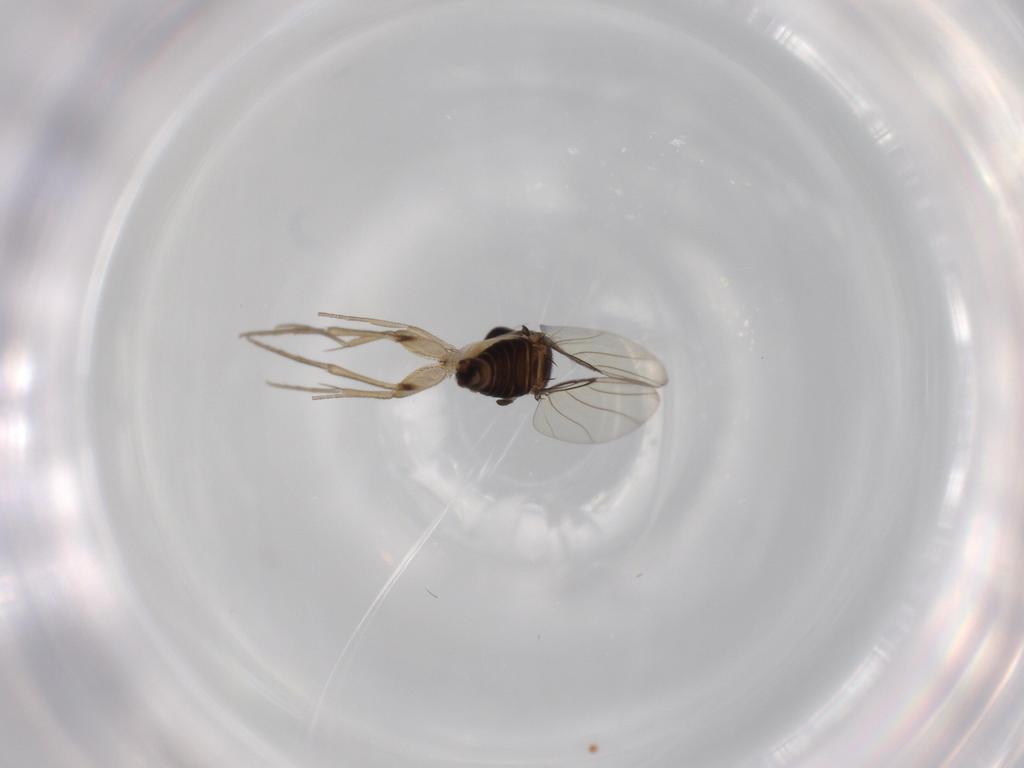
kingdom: Animalia
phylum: Arthropoda
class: Insecta
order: Diptera
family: Phoridae
